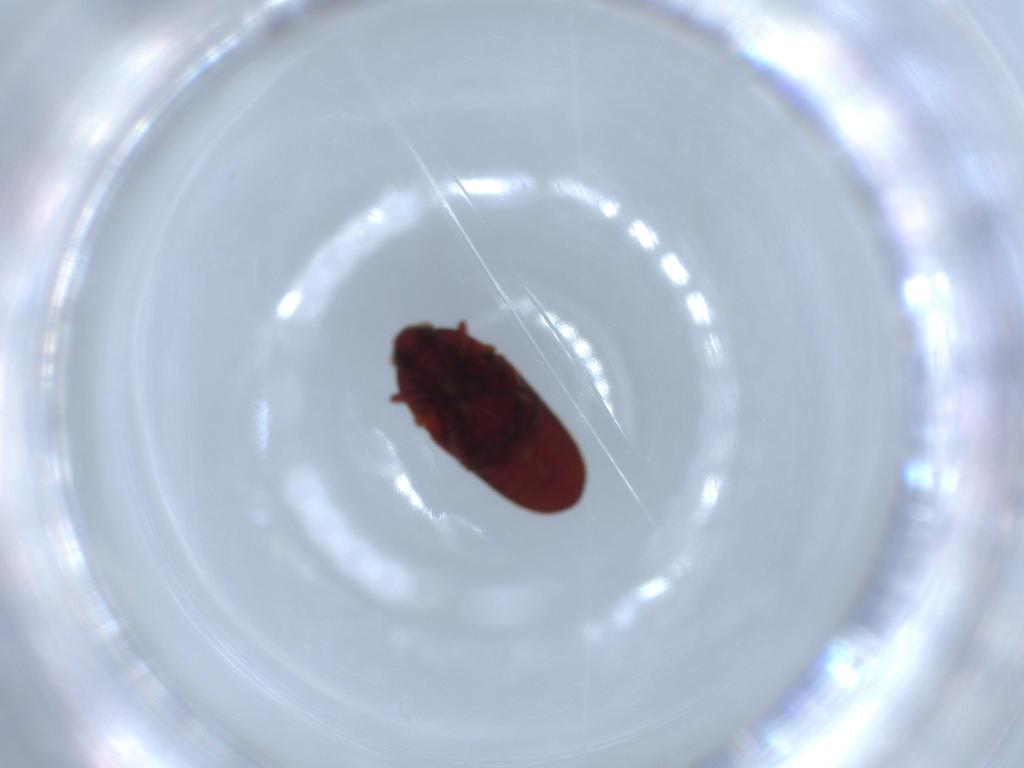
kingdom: Animalia
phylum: Arthropoda
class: Insecta
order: Coleoptera
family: Throscidae
